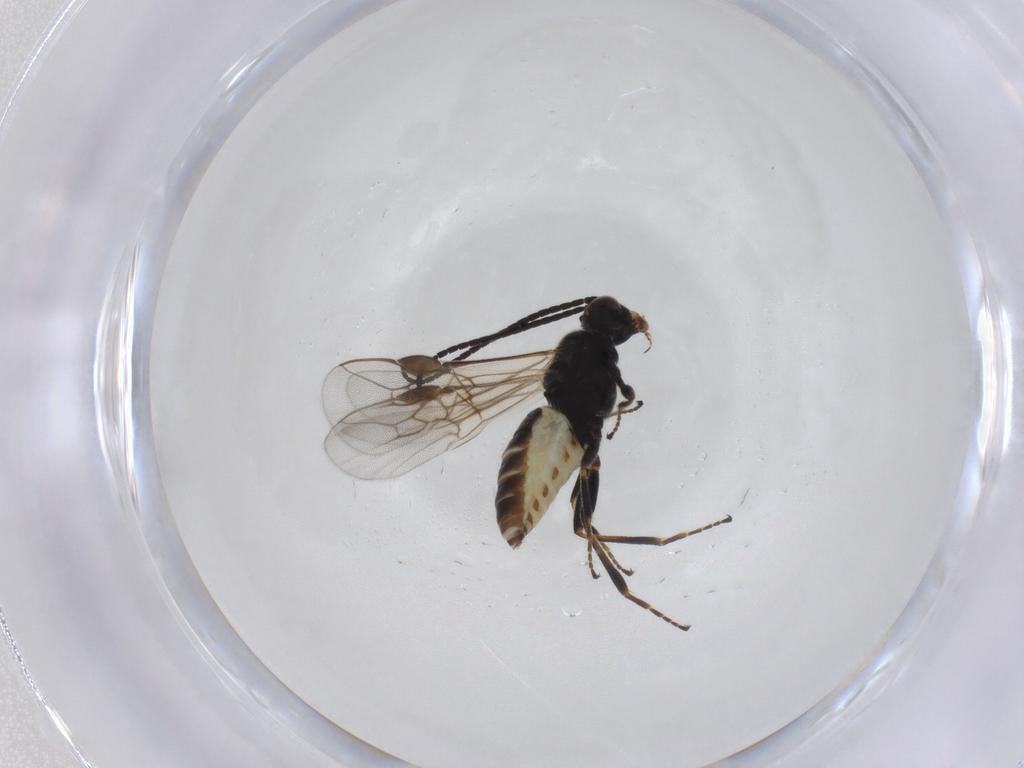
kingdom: Animalia
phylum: Arthropoda
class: Insecta
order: Hymenoptera
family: Braconidae
